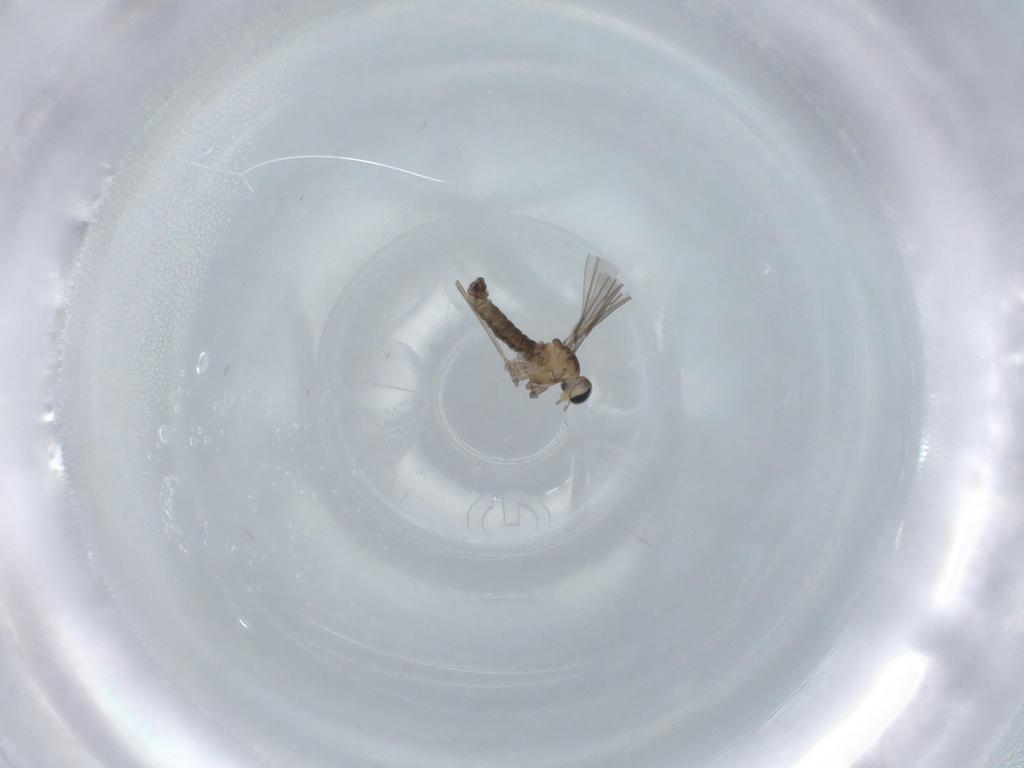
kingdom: Animalia
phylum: Arthropoda
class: Insecta
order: Diptera
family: Cecidomyiidae
